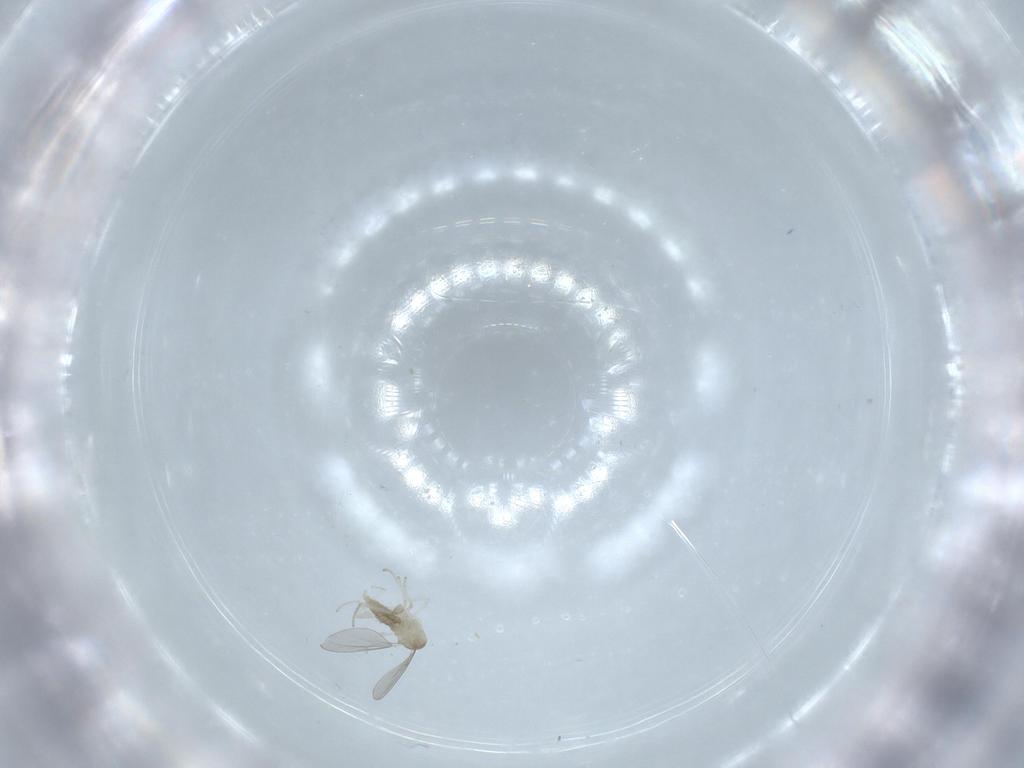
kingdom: Animalia
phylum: Arthropoda
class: Insecta
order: Diptera
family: Cecidomyiidae
